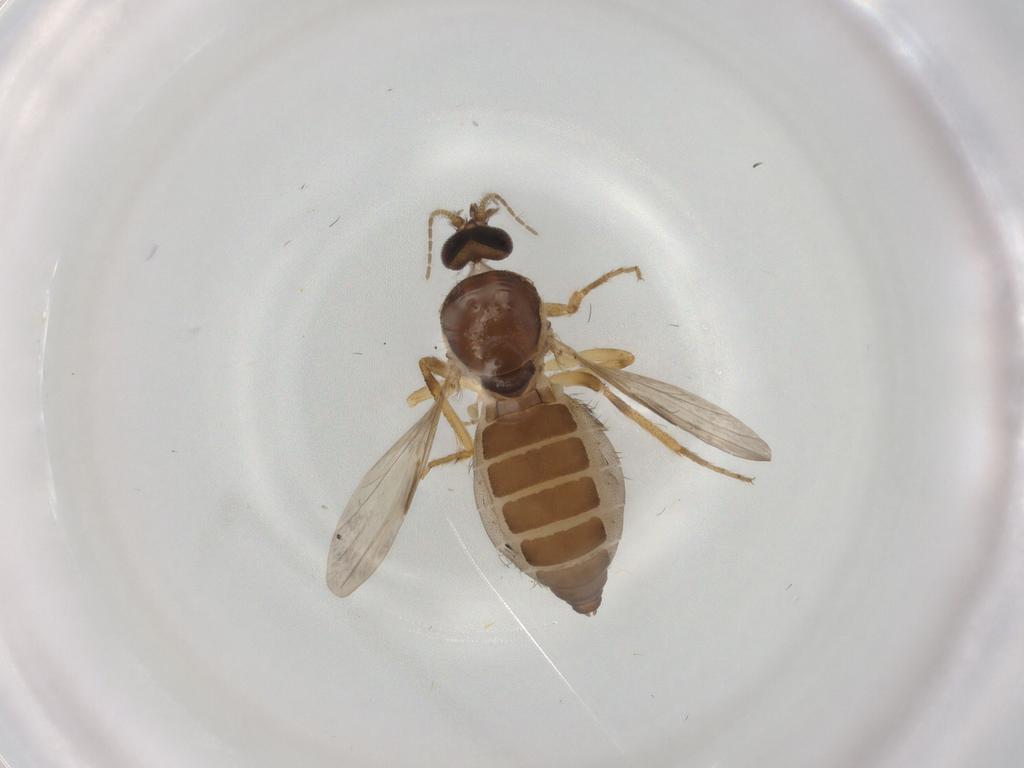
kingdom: Animalia
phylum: Arthropoda
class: Insecta
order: Diptera
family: Ceratopogonidae
